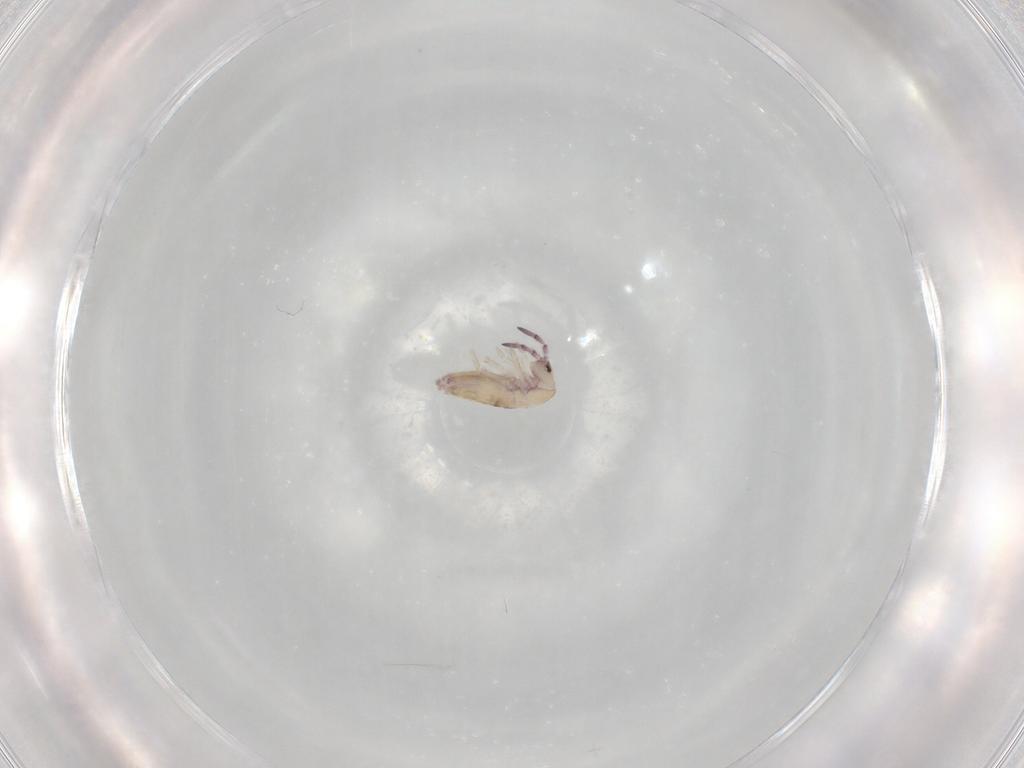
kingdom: Animalia
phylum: Arthropoda
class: Collembola
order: Entomobryomorpha
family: Entomobryidae
